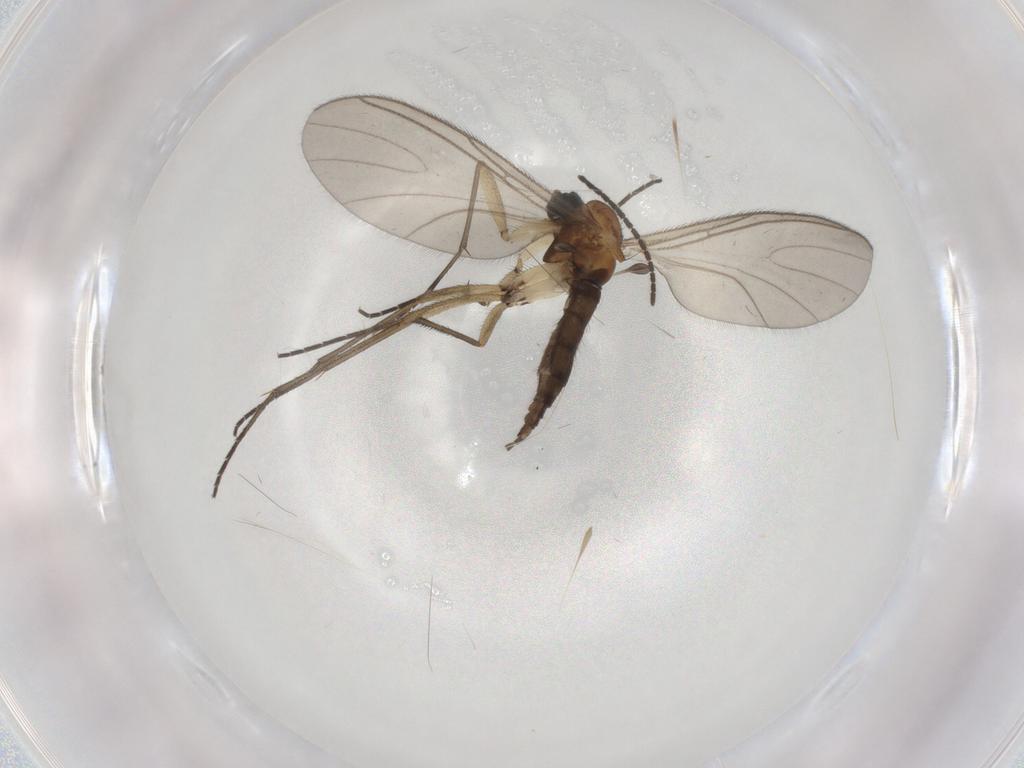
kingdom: Animalia
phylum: Arthropoda
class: Insecta
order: Diptera
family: Sciaridae
